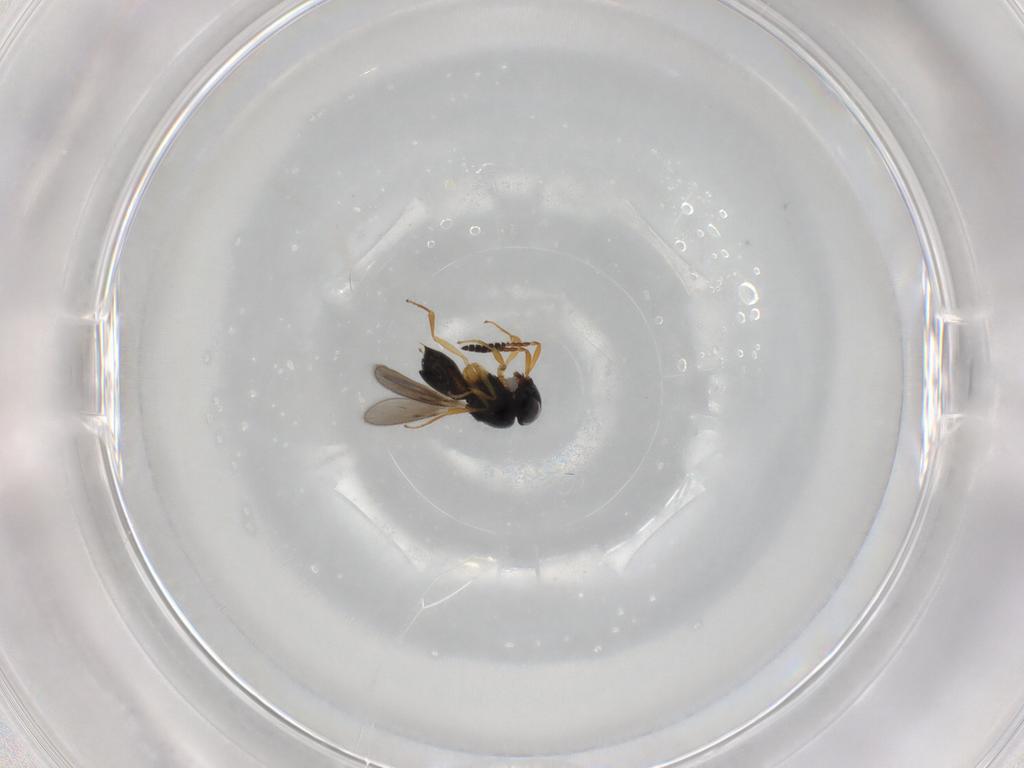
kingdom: Animalia
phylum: Arthropoda
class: Insecta
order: Hymenoptera
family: Scelionidae
